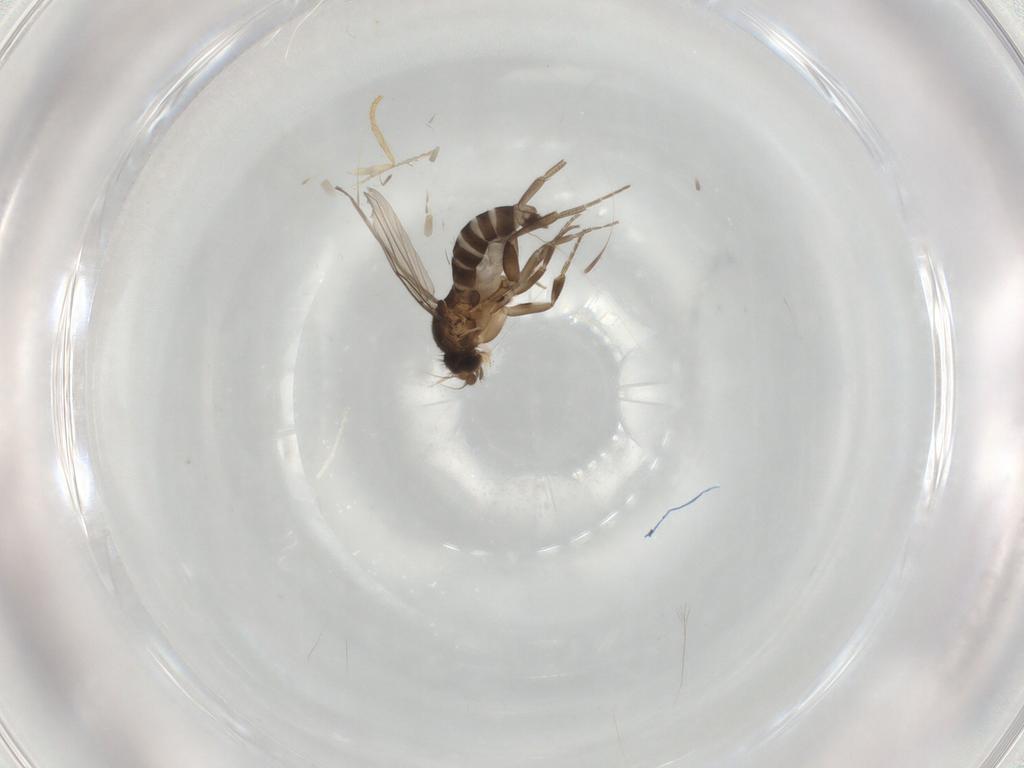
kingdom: Animalia
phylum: Arthropoda
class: Insecta
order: Diptera
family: Phoridae
